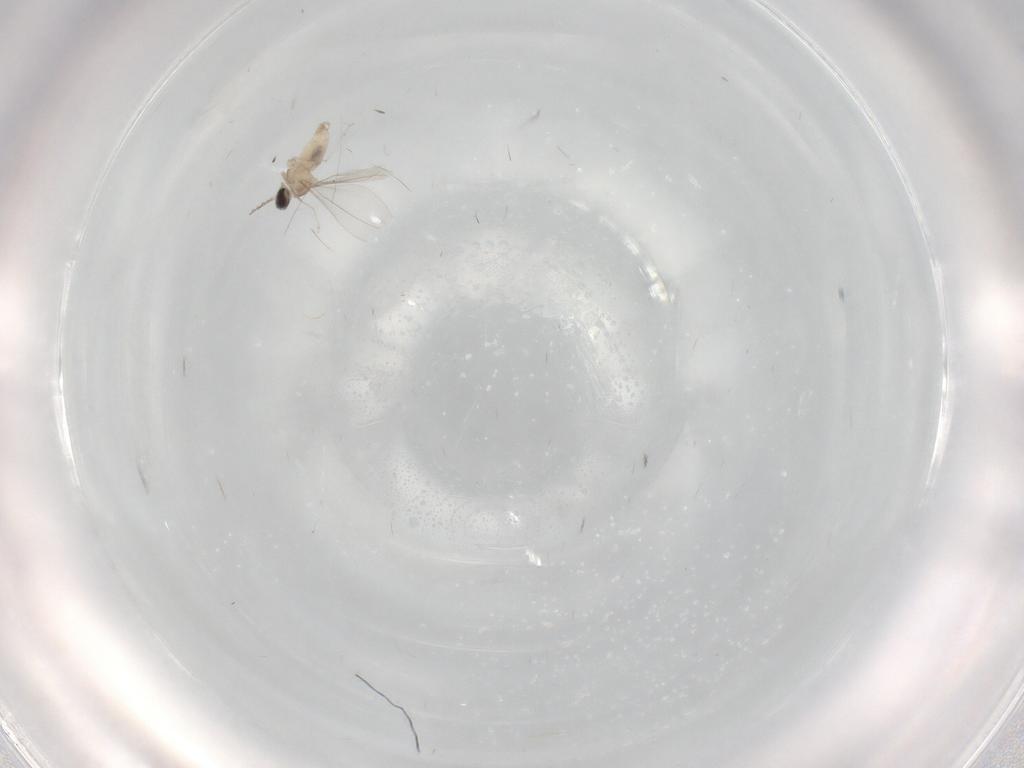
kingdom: Animalia
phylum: Arthropoda
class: Insecta
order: Diptera
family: Cecidomyiidae
